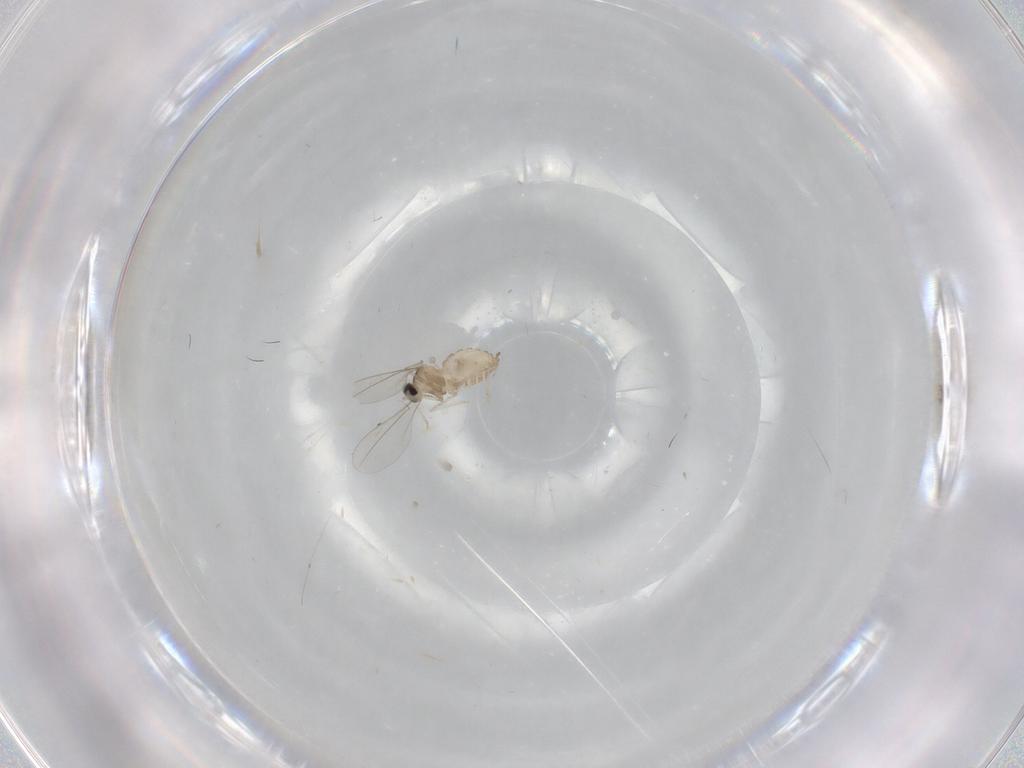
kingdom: Animalia
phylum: Arthropoda
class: Insecta
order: Diptera
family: Cecidomyiidae
